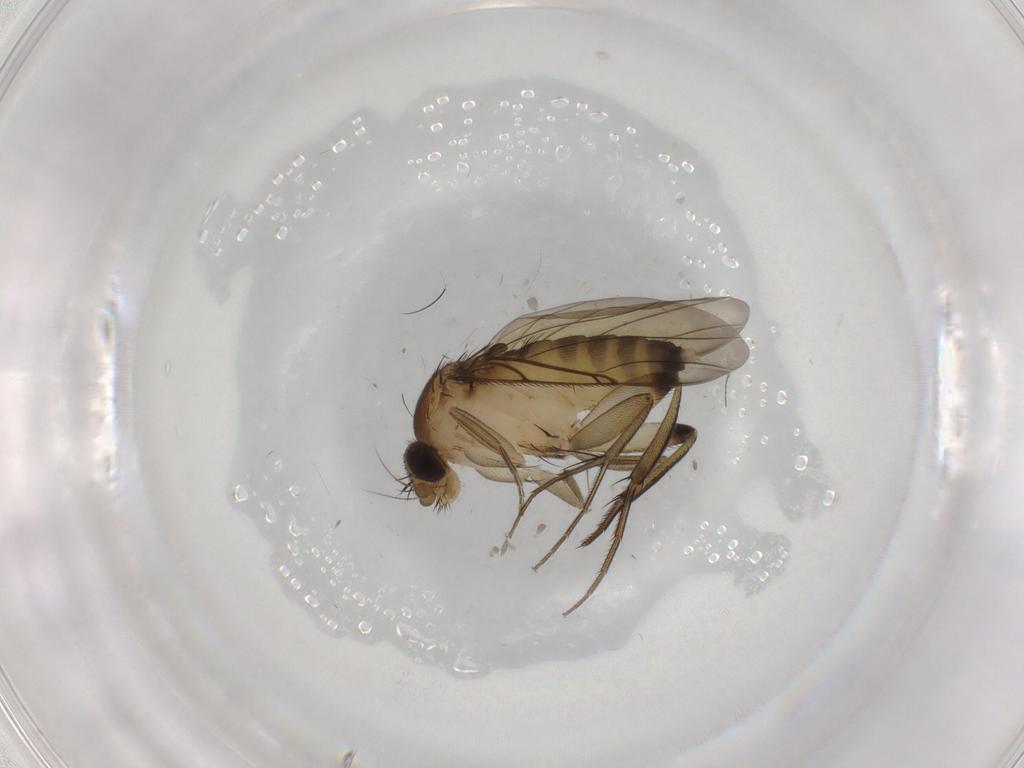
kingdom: Animalia
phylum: Arthropoda
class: Insecta
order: Diptera
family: Chironomidae
